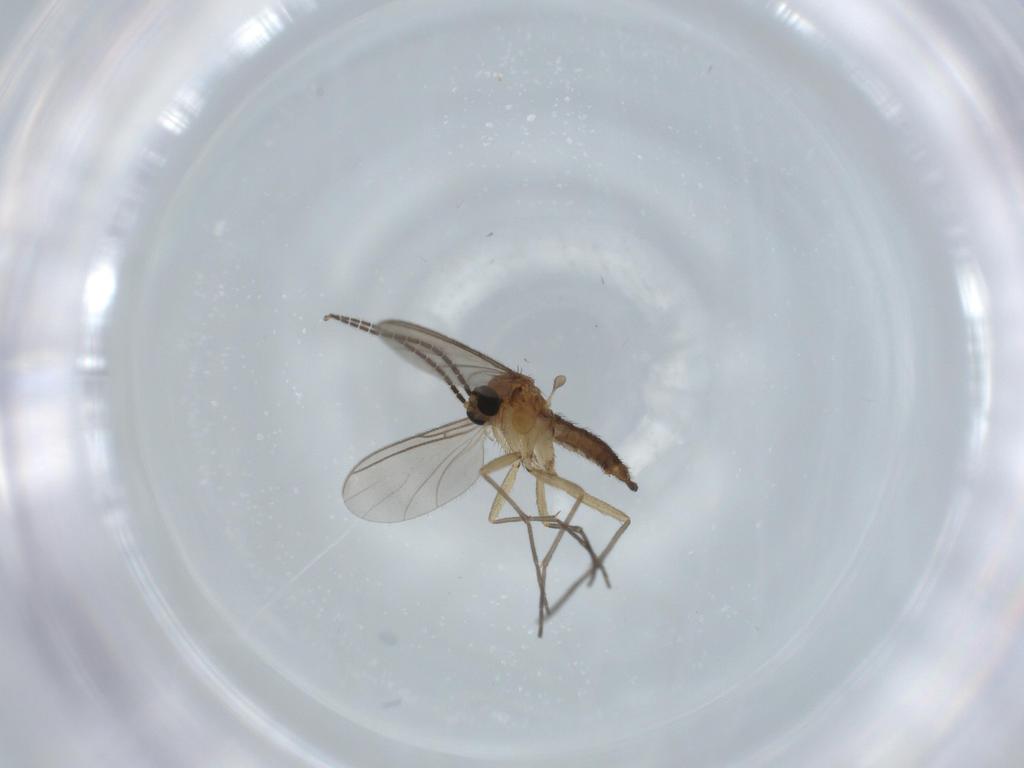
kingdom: Animalia
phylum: Arthropoda
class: Insecta
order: Diptera
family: Sciaridae
